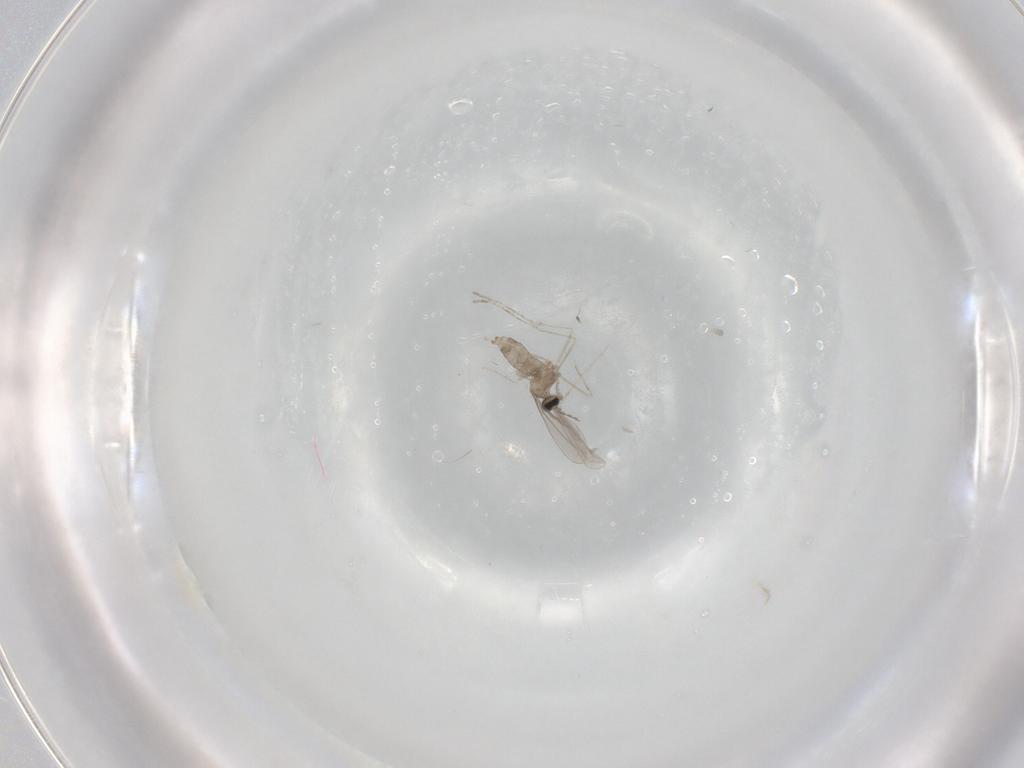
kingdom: Animalia
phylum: Arthropoda
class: Insecta
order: Diptera
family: Cecidomyiidae
